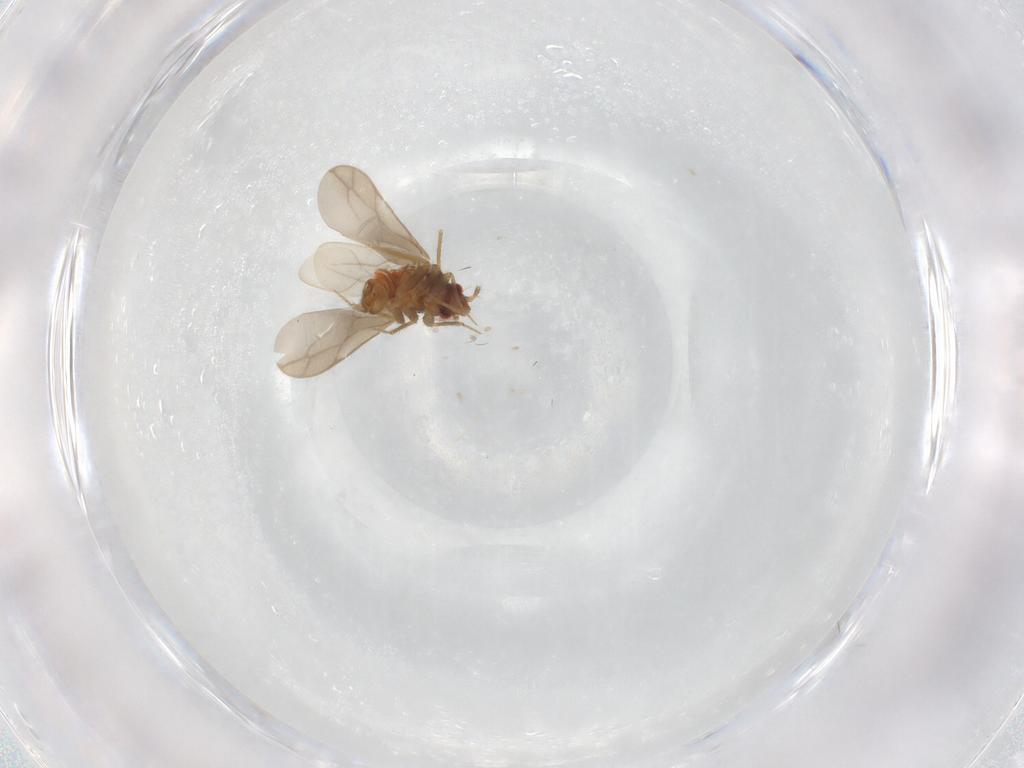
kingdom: Animalia
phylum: Arthropoda
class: Insecta
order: Hemiptera
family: Ceratocombidae
